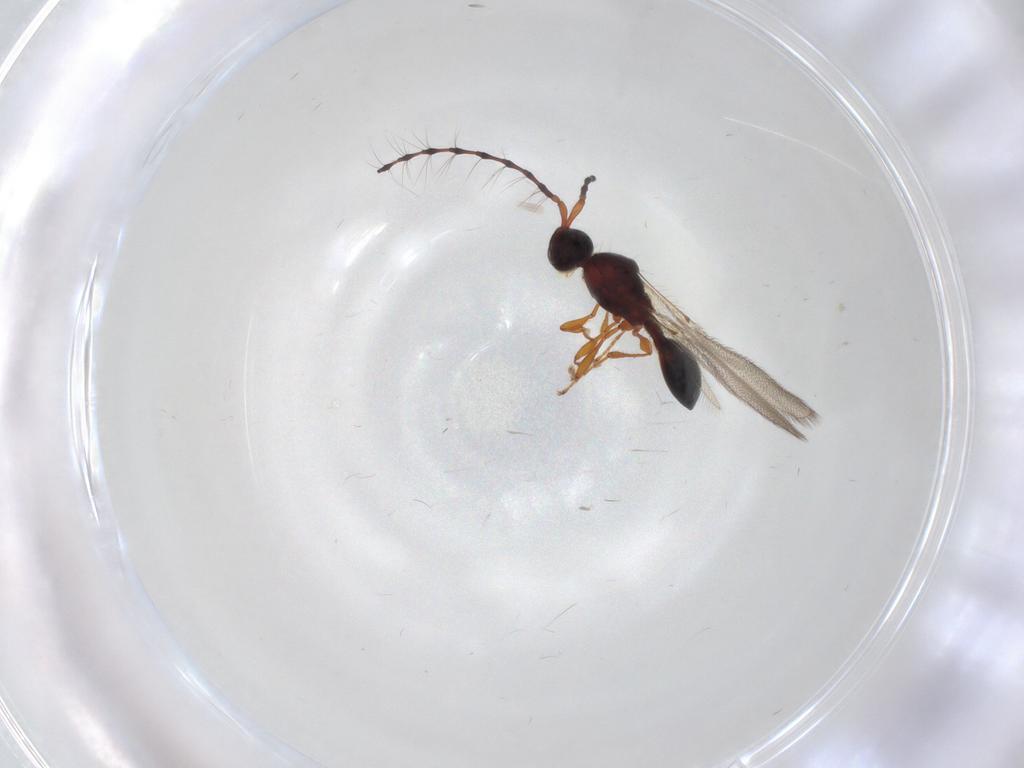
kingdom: Animalia
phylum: Arthropoda
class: Insecta
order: Hymenoptera
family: Diapriidae
